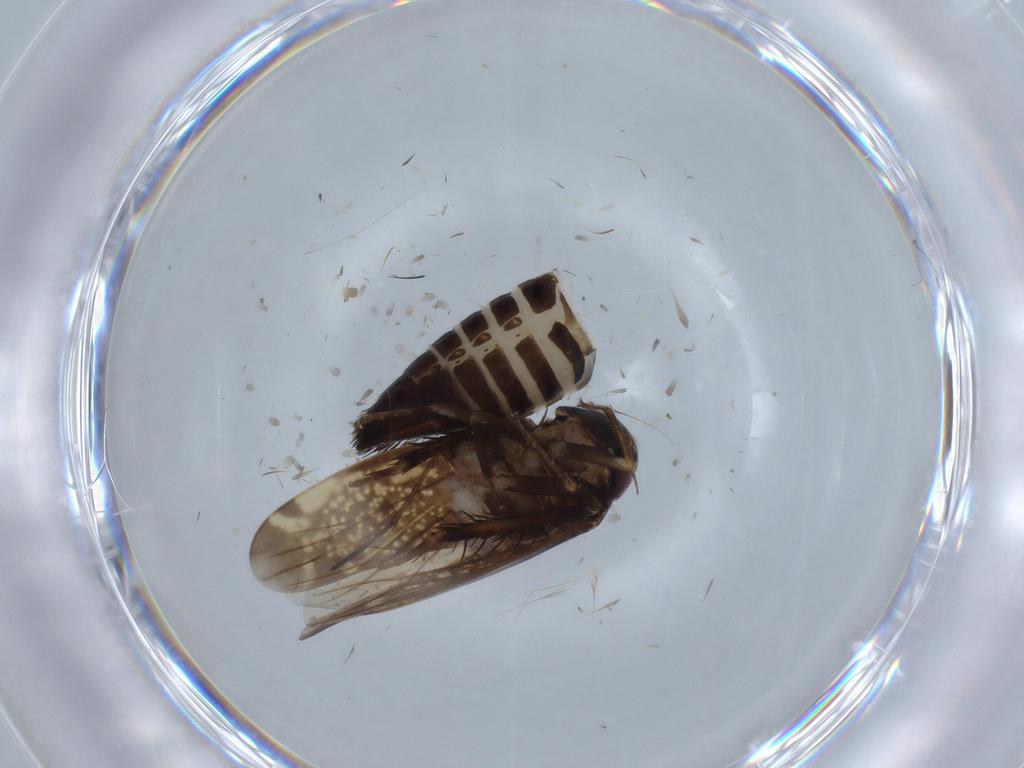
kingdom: Animalia
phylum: Arthropoda
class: Insecta
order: Hemiptera
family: Cicadellidae
